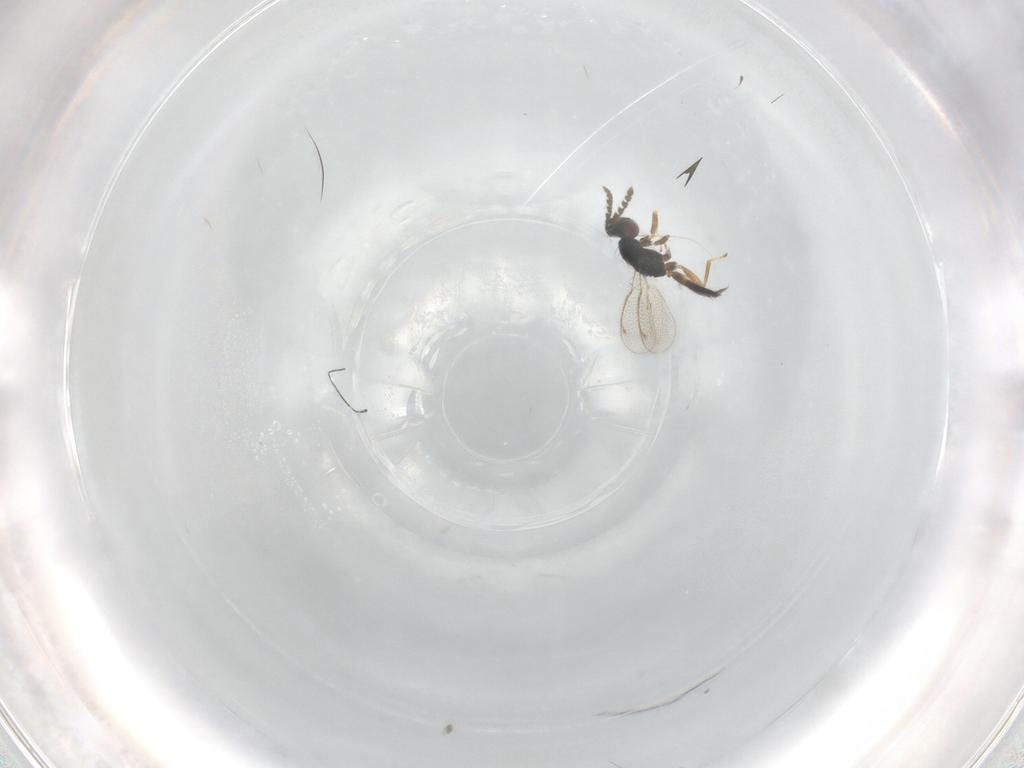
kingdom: Animalia
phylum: Arthropoda
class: Insecta
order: Hymenoptera
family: Eulophidae
